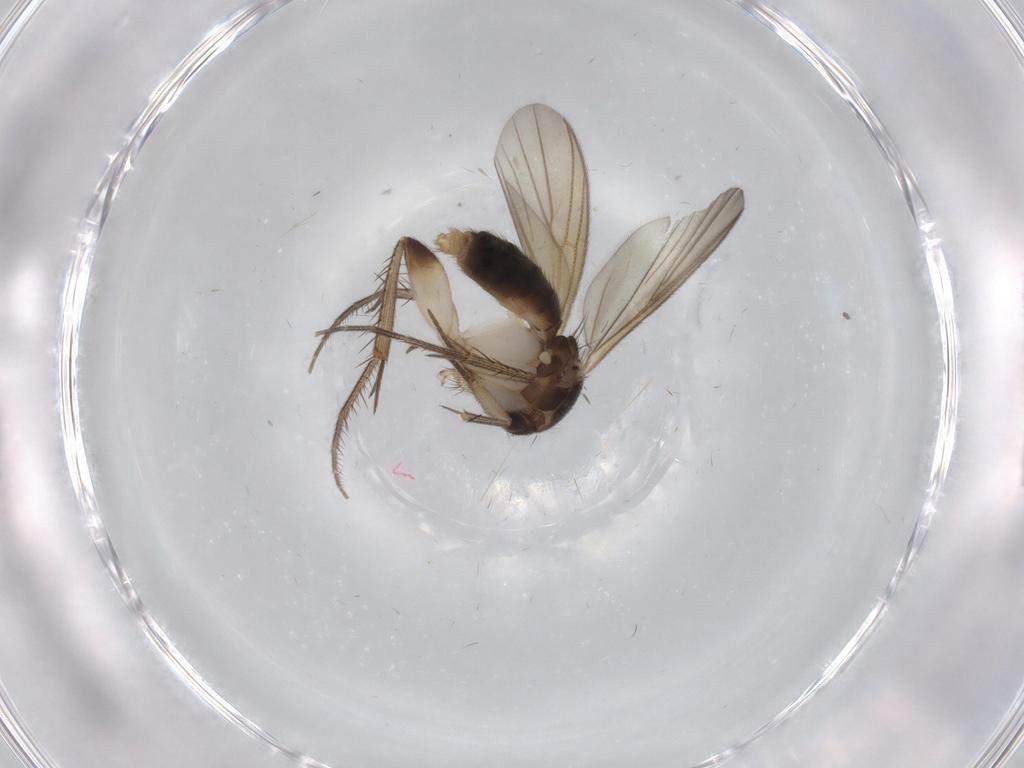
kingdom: Animalia
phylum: Arthropoda
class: Insecta
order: Diptera
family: Mycetophilidae
